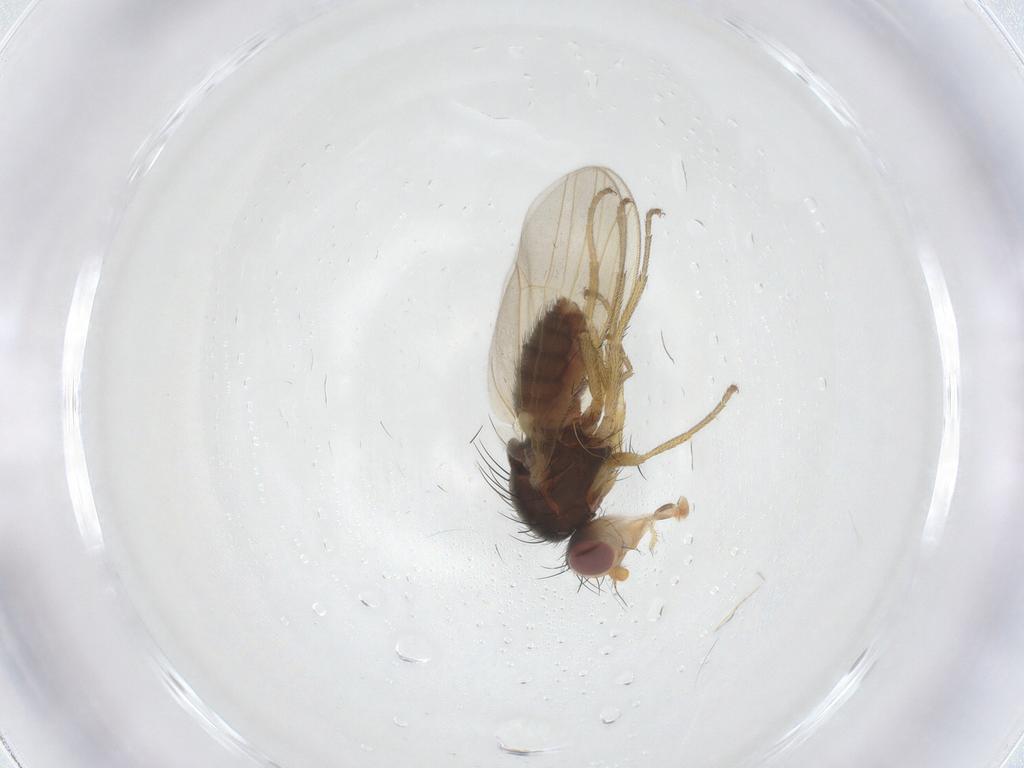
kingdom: Animalia
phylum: Arthropoda
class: Insecta
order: Diptera
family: Heleomyzidae
